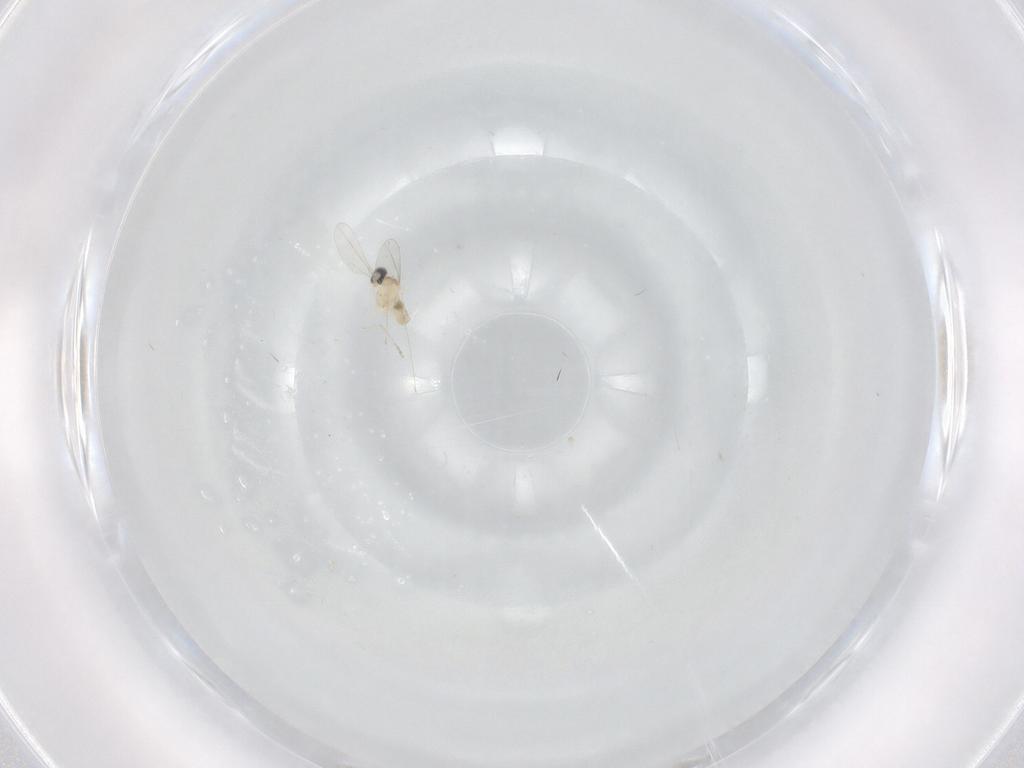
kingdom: Animalia
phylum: Arthropoda
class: Insecta
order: Diptera
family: Cecidomyiidae
